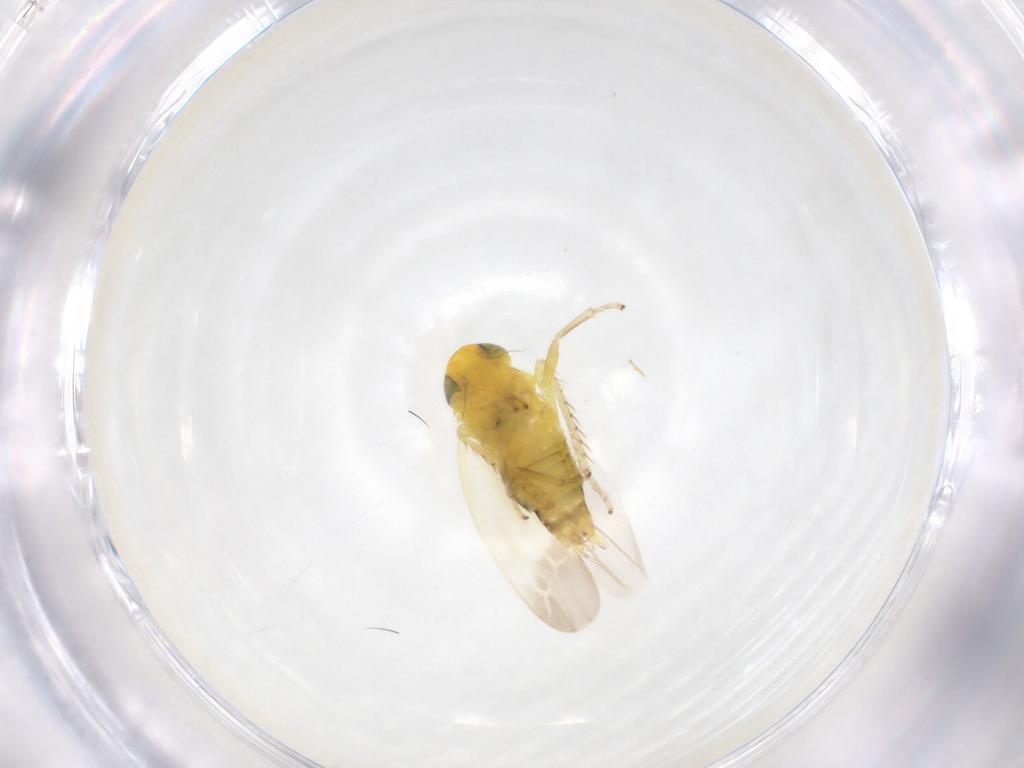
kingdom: Animalia
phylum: Arthropoda
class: Insecta
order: Hemiptera
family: Cicadellidae
